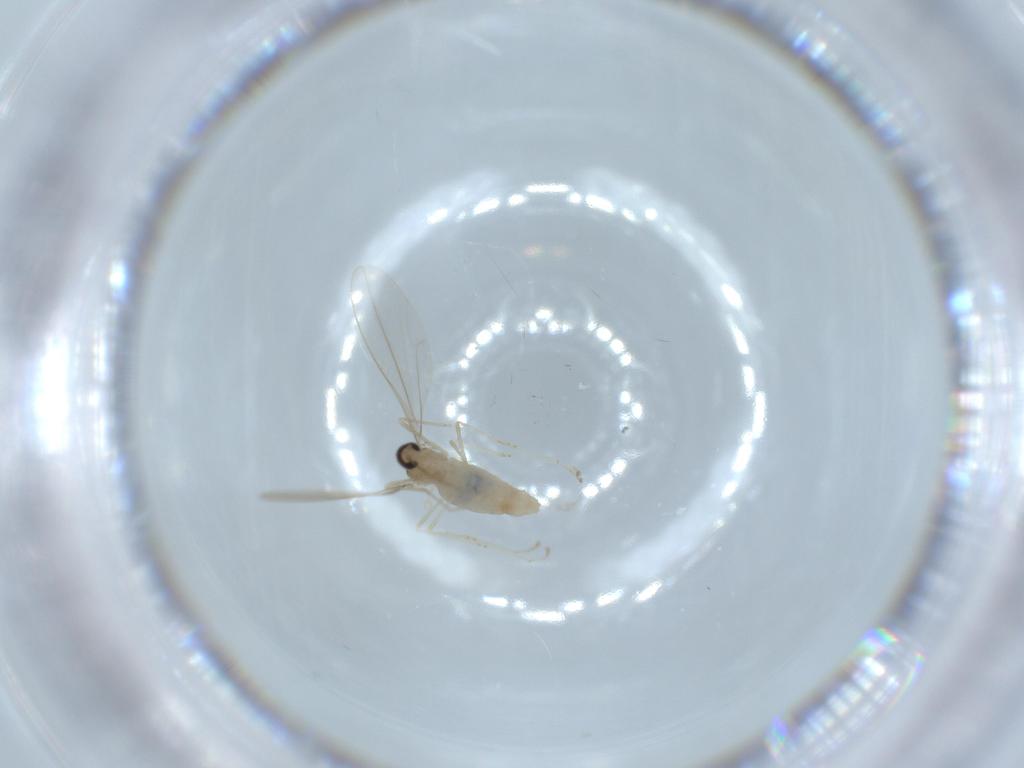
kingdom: Animalia
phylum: Arthropoda
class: Insecta
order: Diptera
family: Cecidomyiidae
